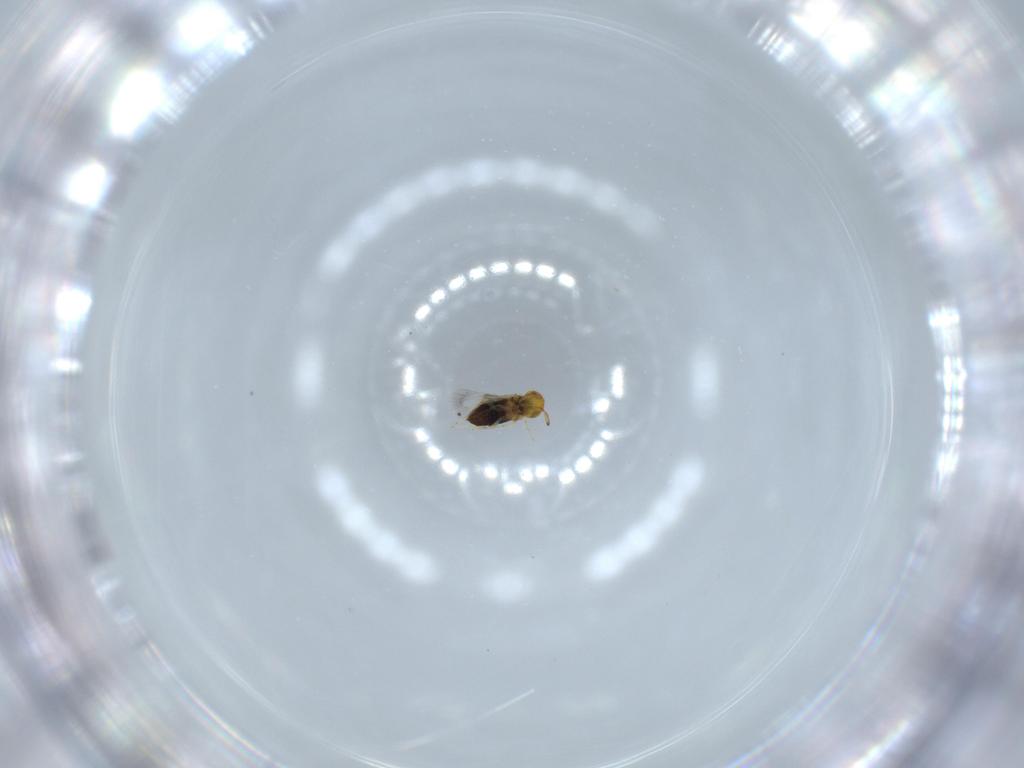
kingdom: Animalia
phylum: Arthropoda
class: Insecta
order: Hymenoptera
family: Signiphoridae
